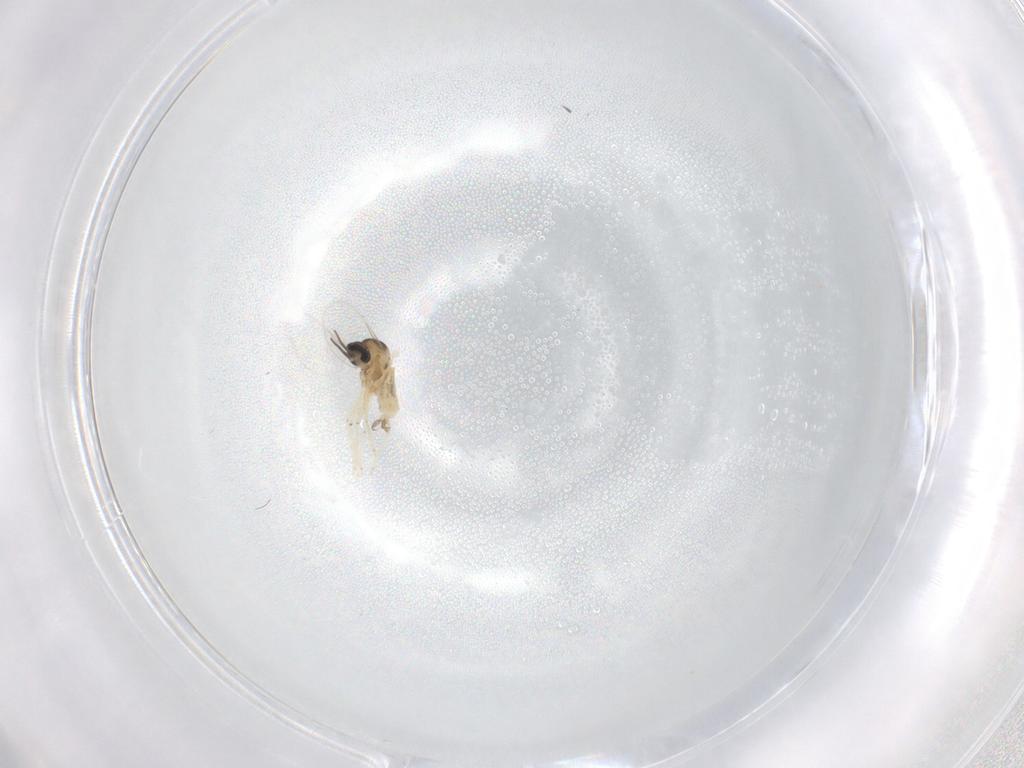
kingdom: Animalia
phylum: Arthropoda
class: Insecta
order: Diptera
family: Cecidomyiidae
